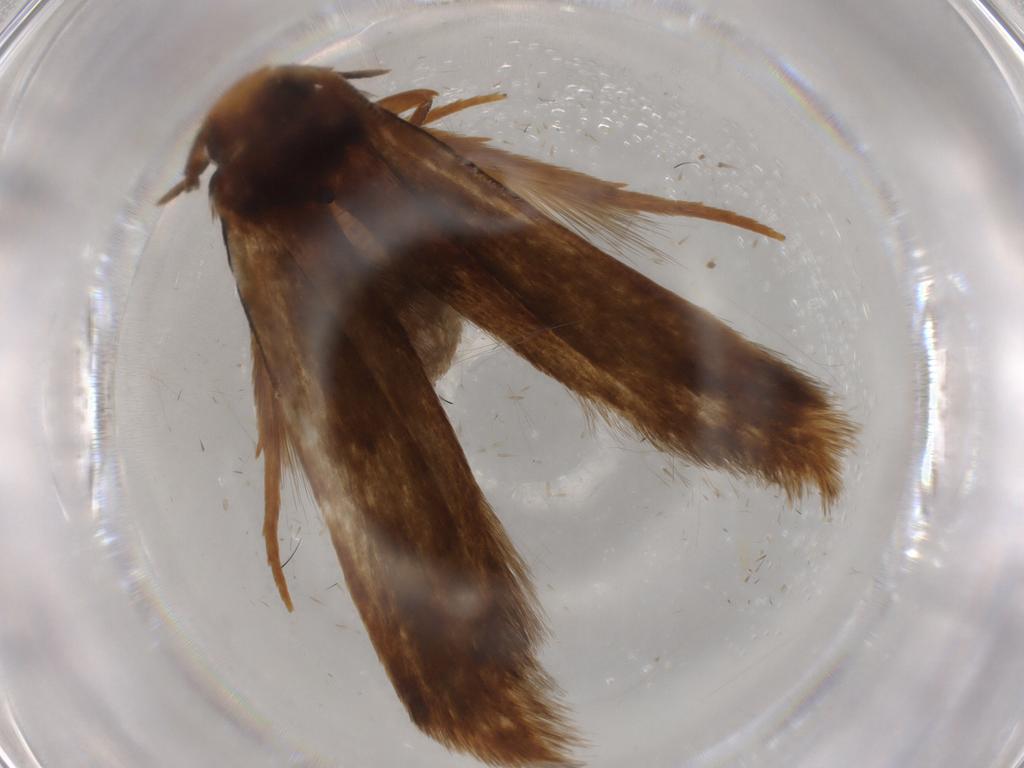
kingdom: Animalia
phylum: Arthropoda
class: Insecta
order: Lepidoptera
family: Tineidae
